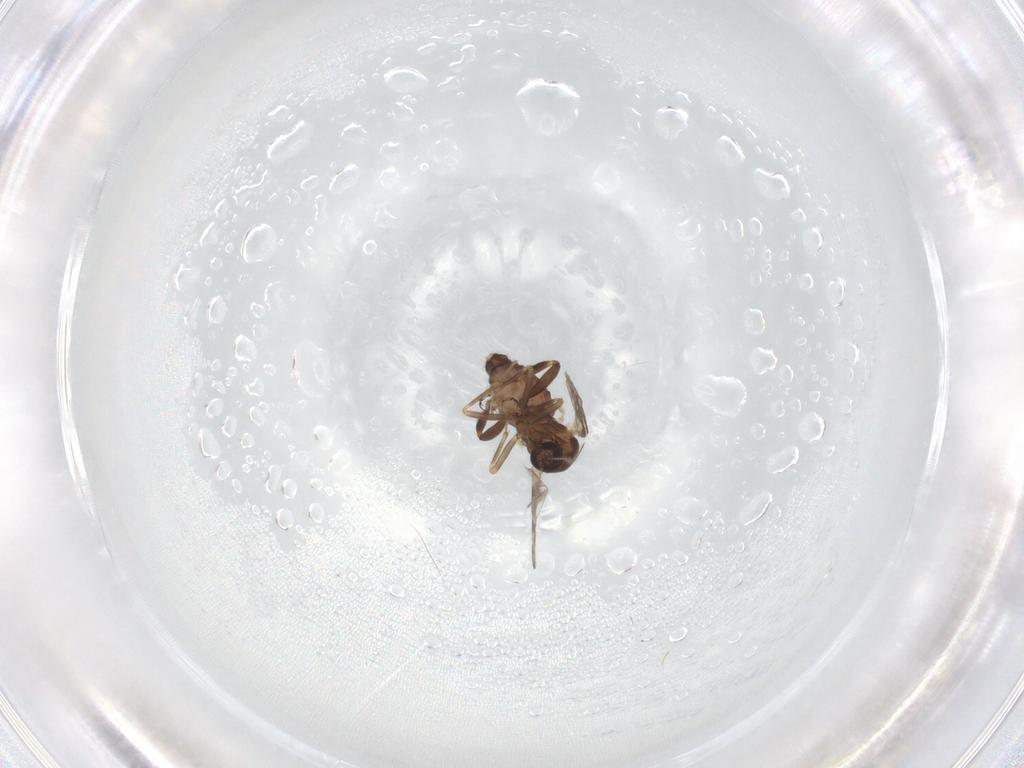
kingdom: Animalia
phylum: Arthropoda
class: Insecta
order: Diptera
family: Ceratopogonidae
